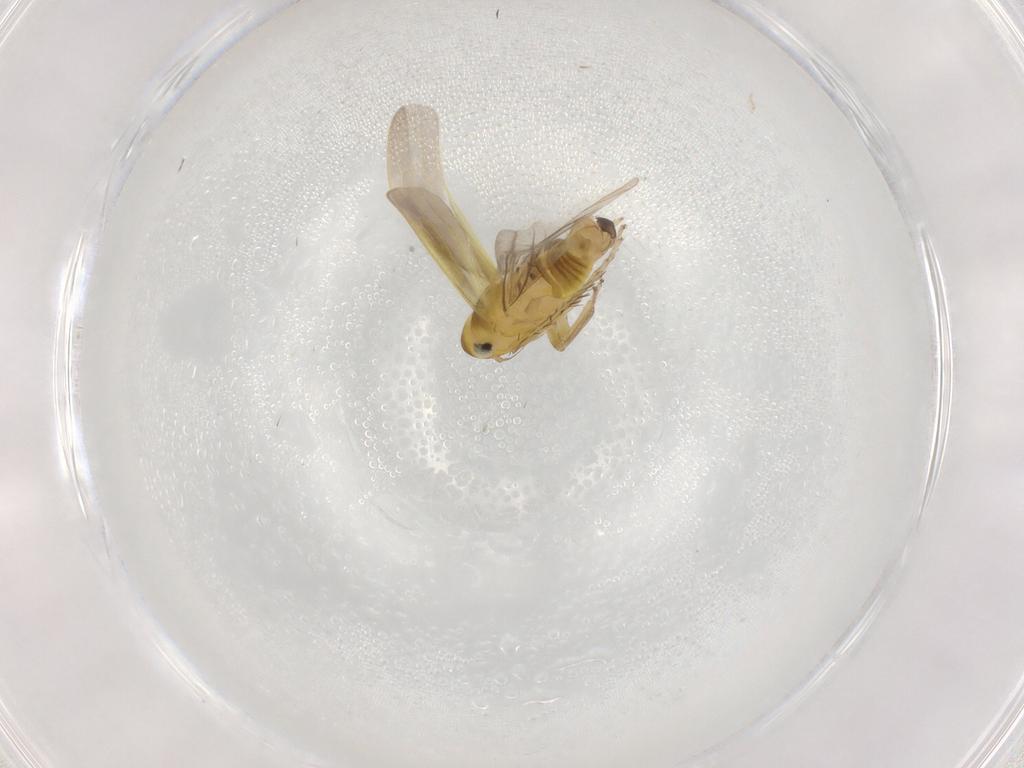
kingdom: Animalia
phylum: Arthropoda
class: Insecta
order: Hemiptera
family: Cicadellidae
